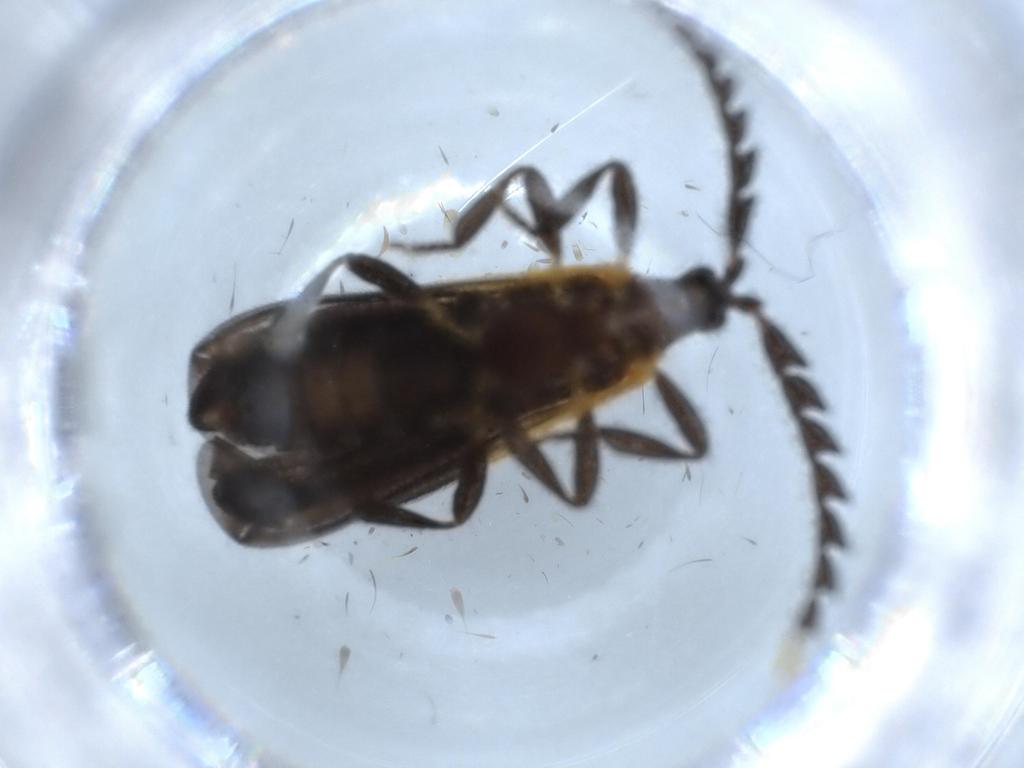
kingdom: Animalia
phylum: Arthropoda
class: Insecta
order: Coleoptera
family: Lycidae
